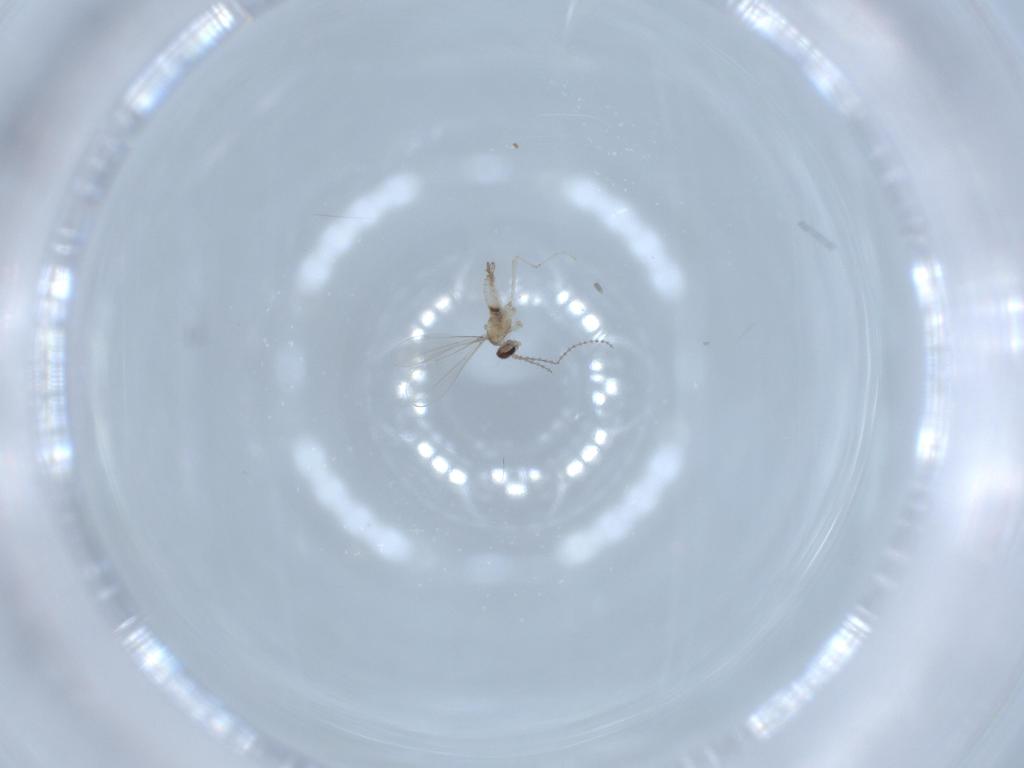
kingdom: Animalia
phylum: Arthropoda
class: Insecta
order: Diptera
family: Cecidomyiidae
